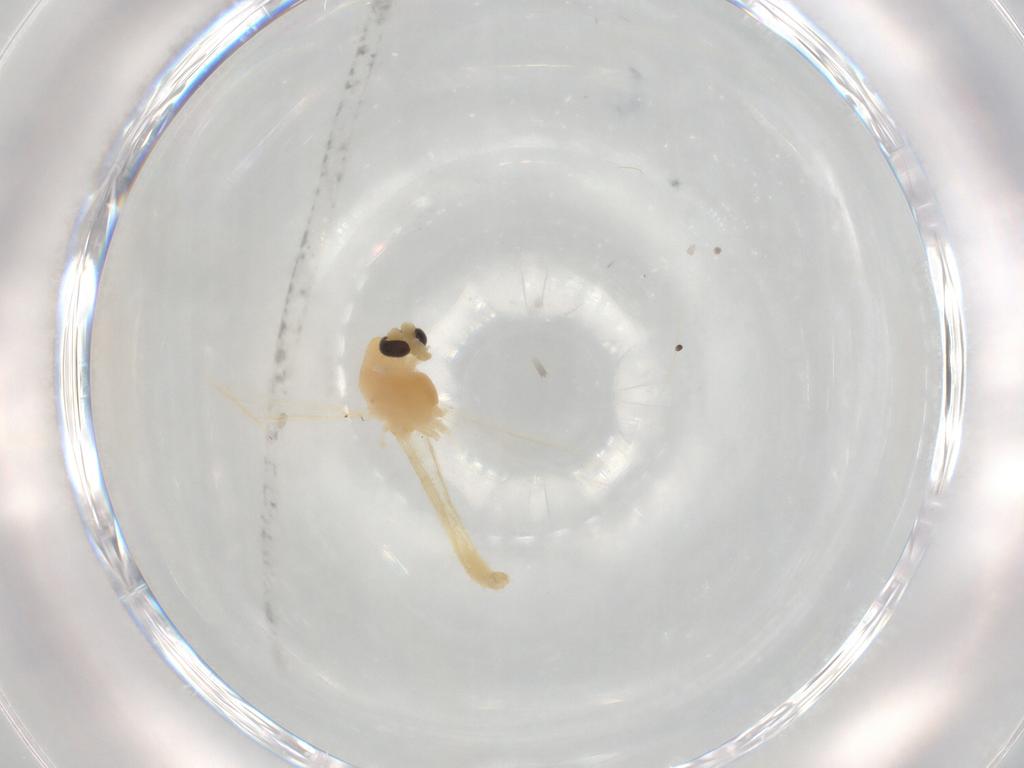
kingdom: Animalia
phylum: Arthropoda
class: Insecta
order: Diptera
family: Chironomidae
